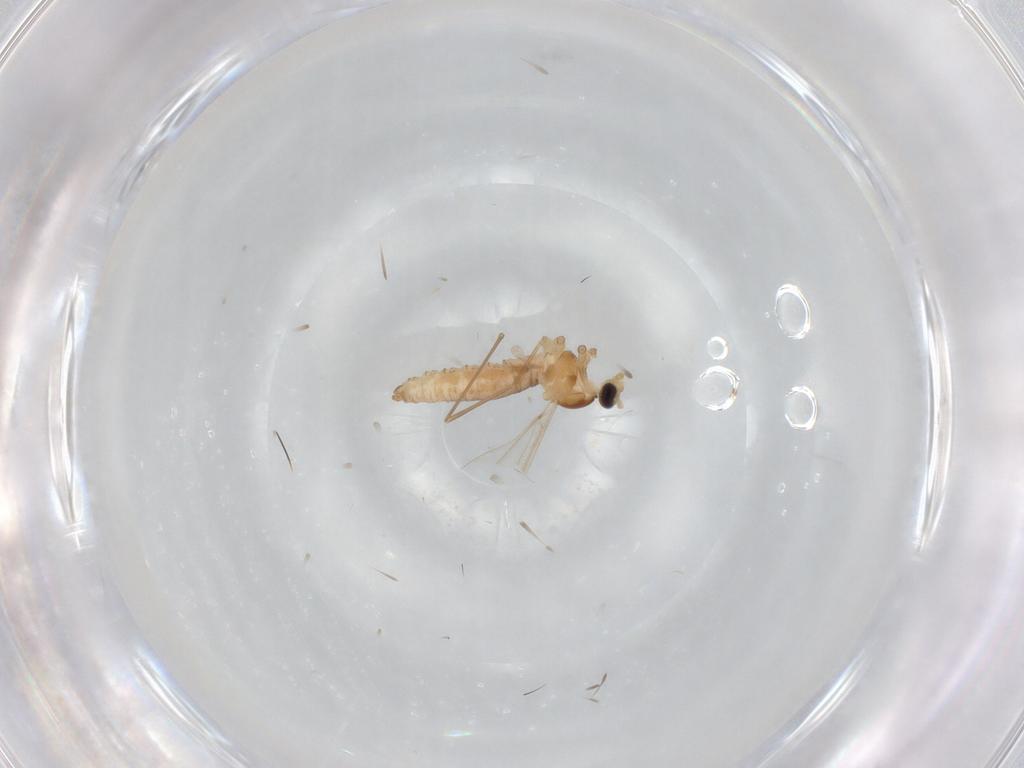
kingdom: Animalia
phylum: Arthropoda
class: Insecta
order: Diptera
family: Cecidomyiidae
